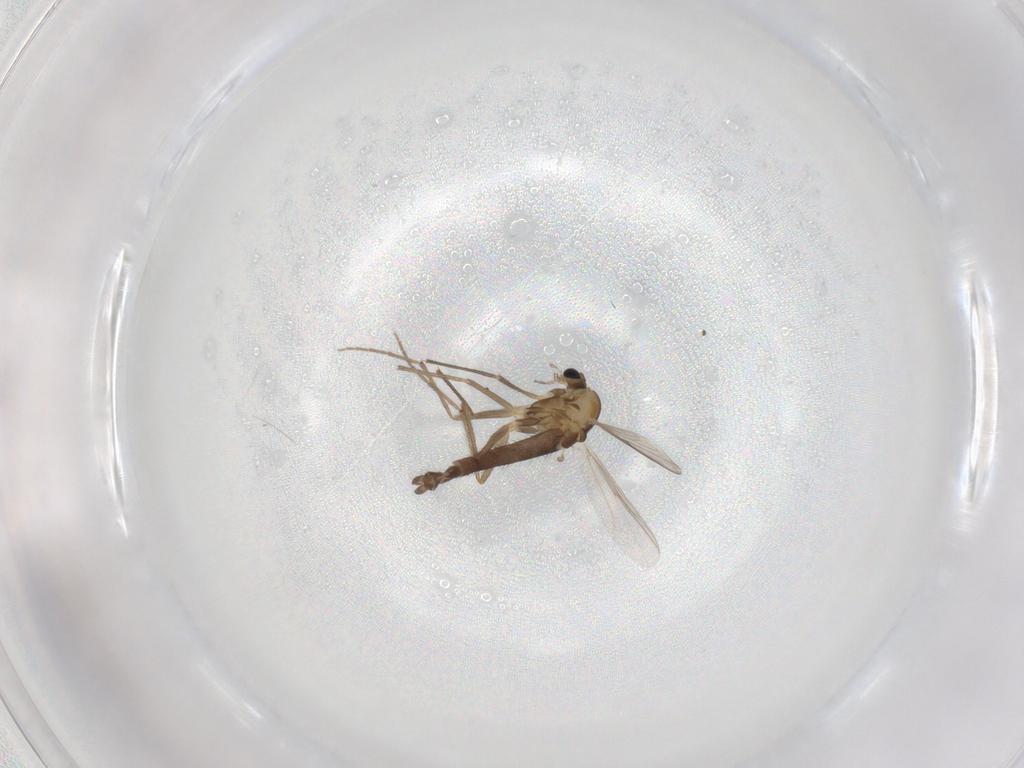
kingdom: Animalia
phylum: Arthropoda
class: Insecta
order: Diptera
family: Chironomidae
